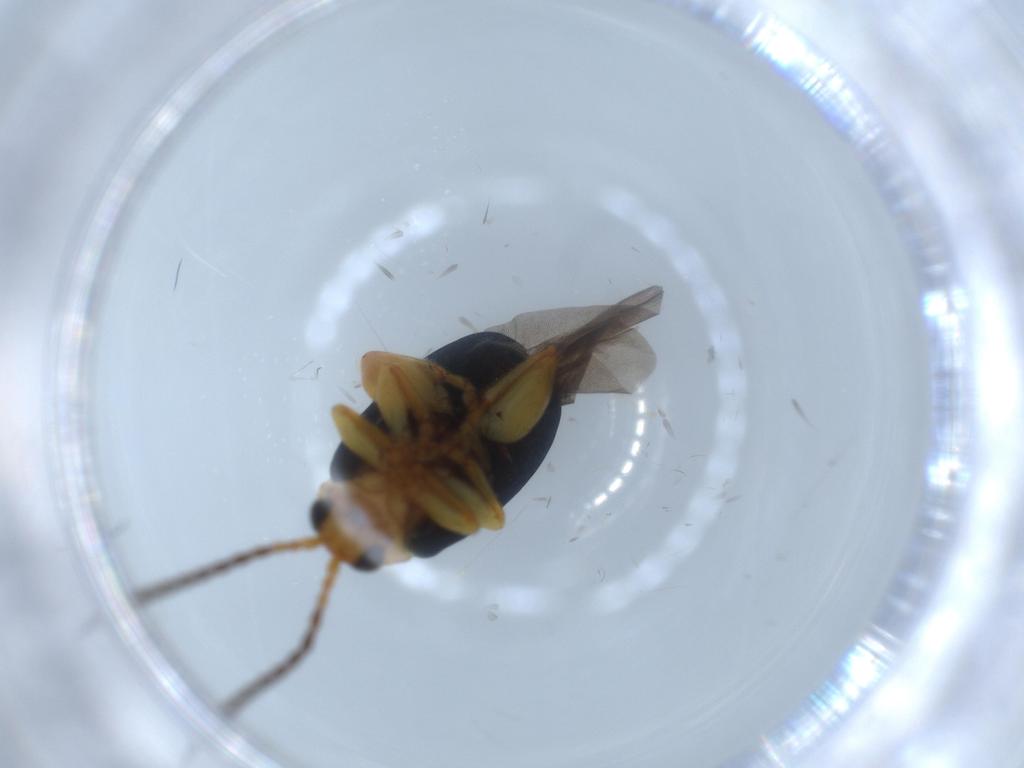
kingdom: Animalia
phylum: Arthropoda
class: Insecta
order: Coleoptera
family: Chrysomelidae
